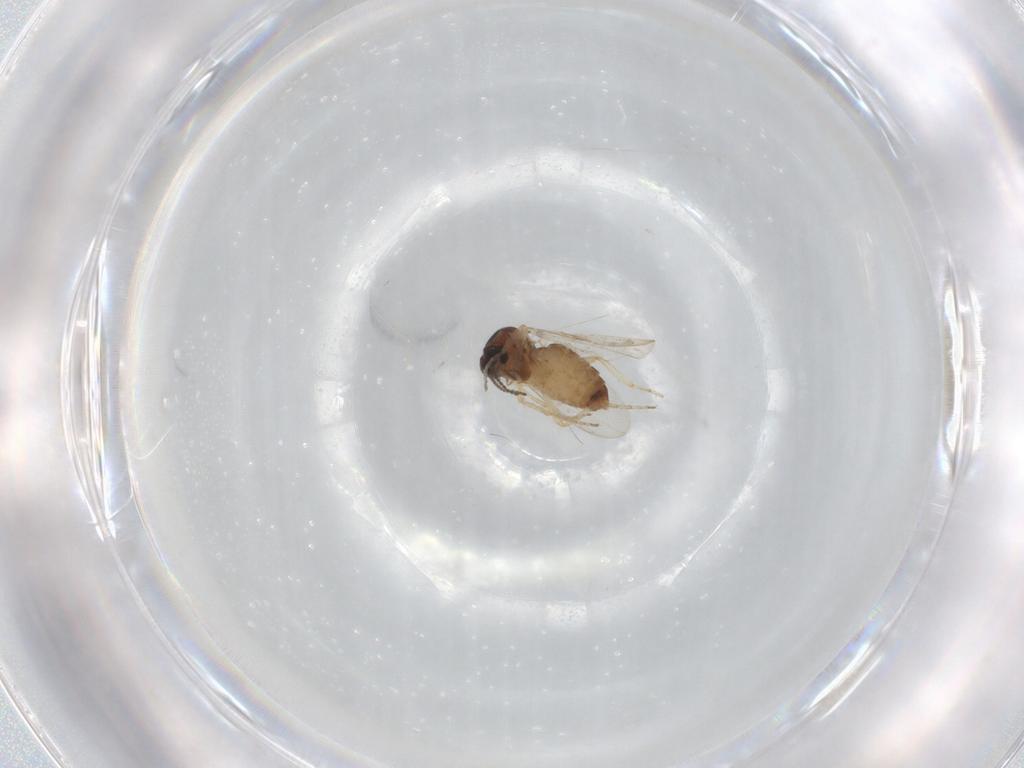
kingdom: Animalia
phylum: Arthropoda
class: Insecta
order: Diptera
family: Ceratopogonidae
